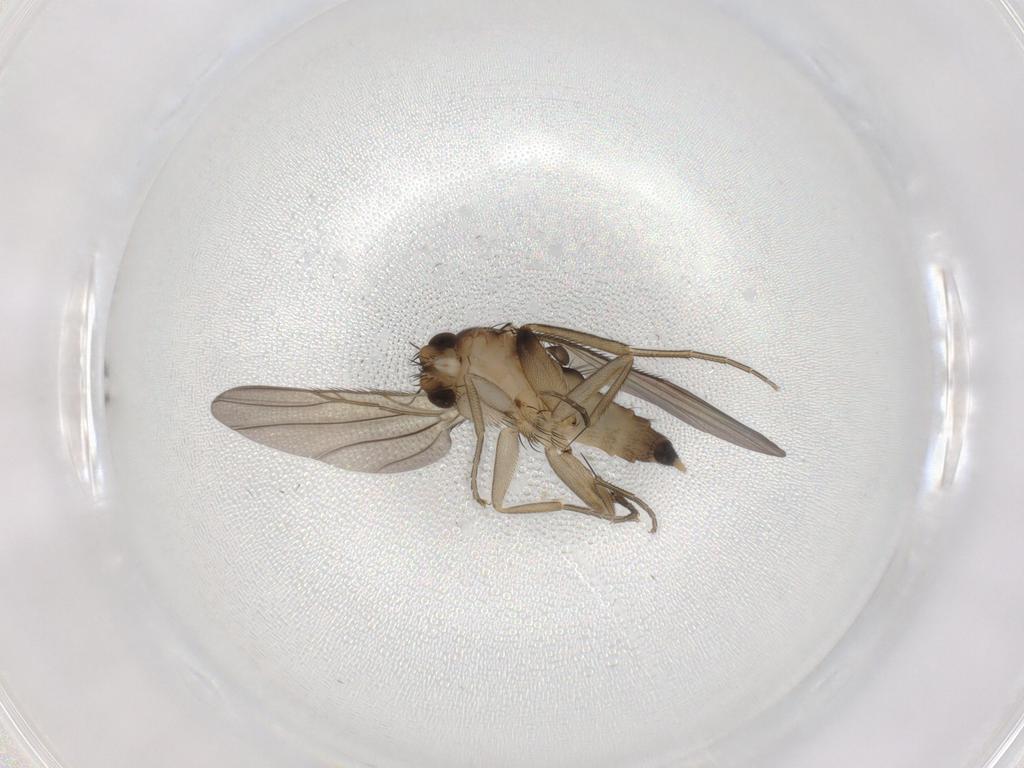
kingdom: Animalia
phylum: Arthropoda
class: Insecta
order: Diptera
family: Phoridae
